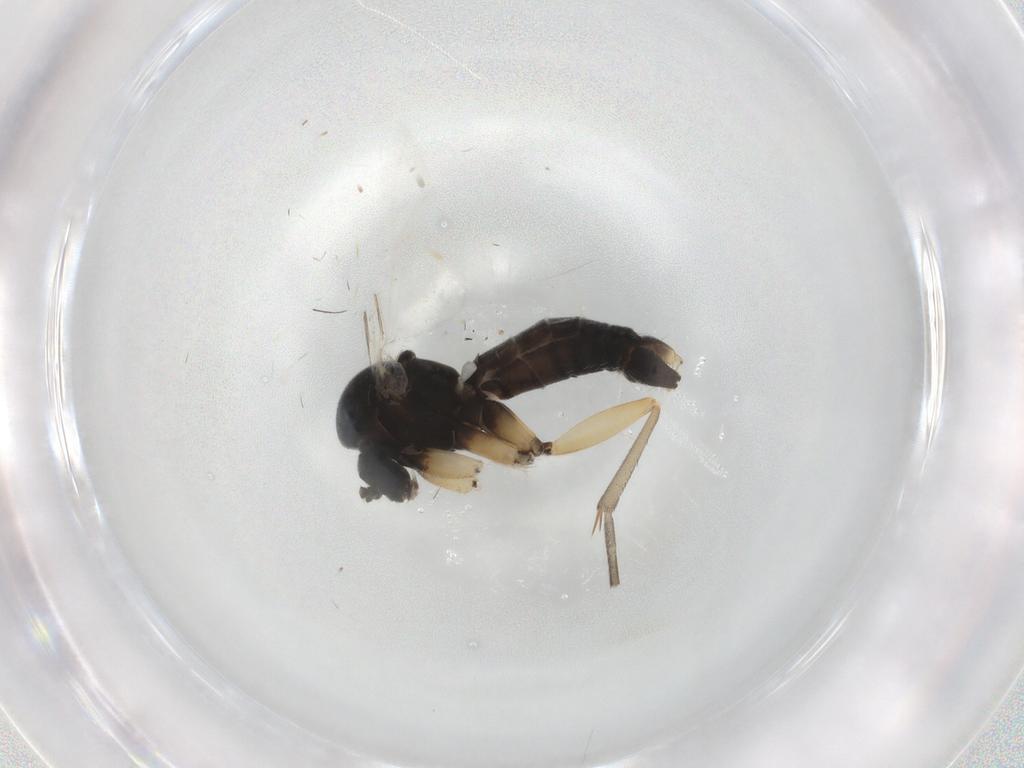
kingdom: Animalia
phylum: Arthropoda
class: Insecta
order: Diptera
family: Mycetophilidae
